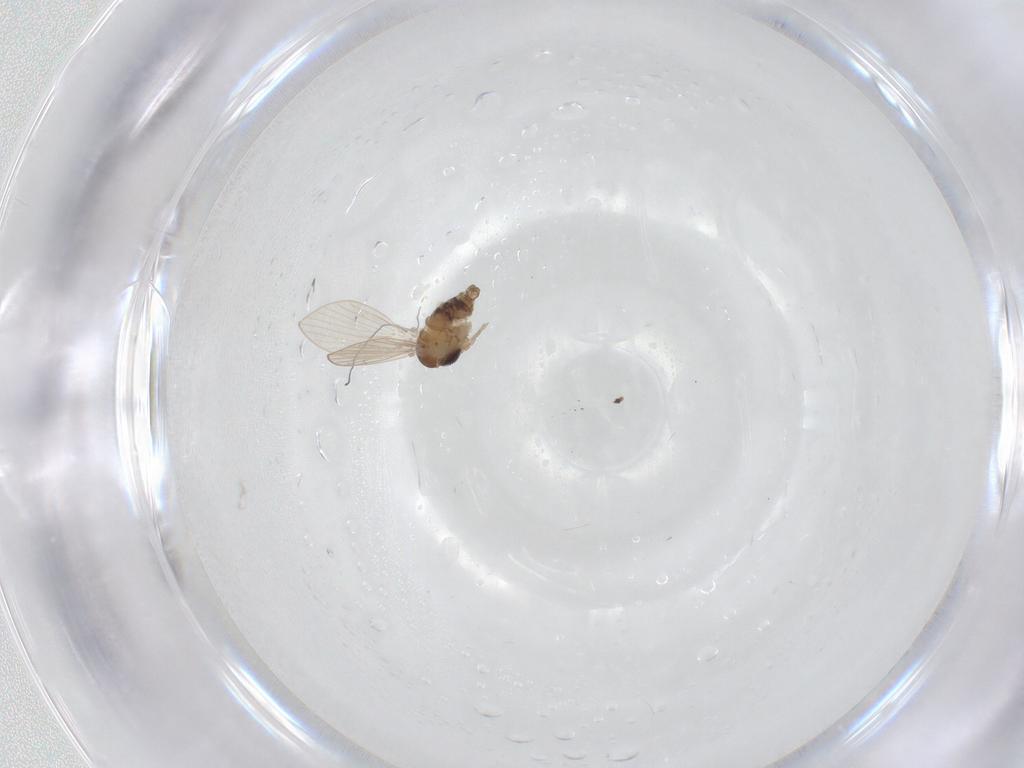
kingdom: Animalia
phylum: Arthropoda
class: Insecta
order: Diptera
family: Psychodidae
